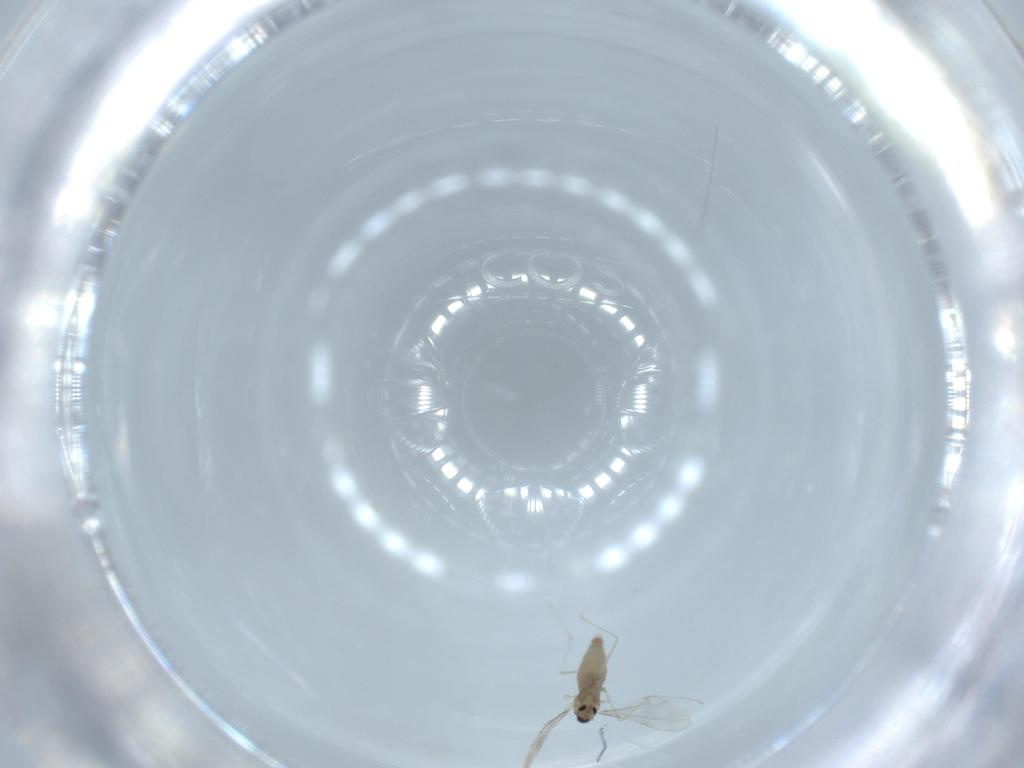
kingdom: Animalia
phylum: Arthropoda
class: Insecta
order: Diptera
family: Cecidomyiidae
